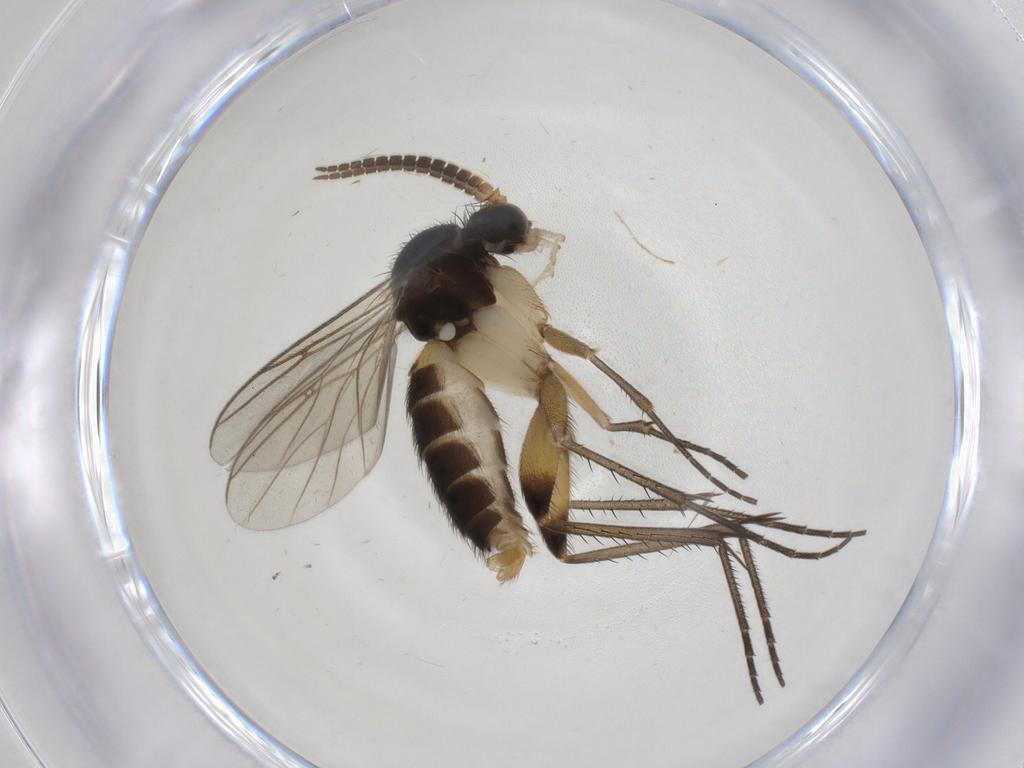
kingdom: Animalia
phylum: Arthropoda
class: Insecta
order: Diptera
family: Mycetophilidae
